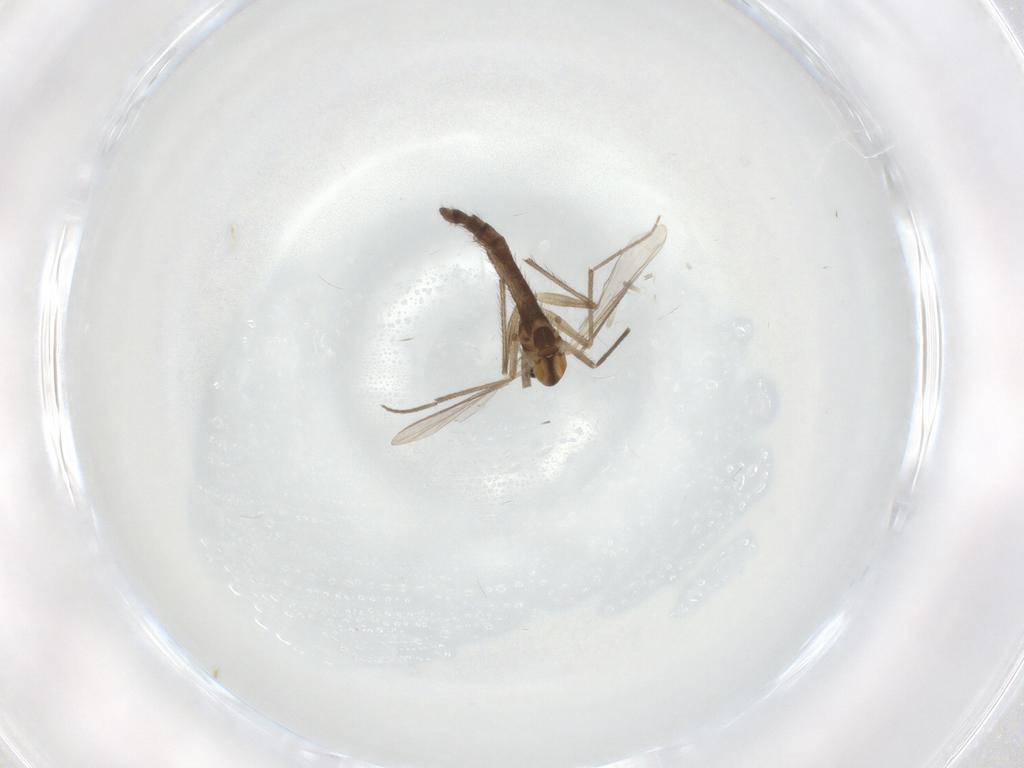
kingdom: Animalia
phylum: Arthropoda
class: Insecta
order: Diptera
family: Chironomidae
